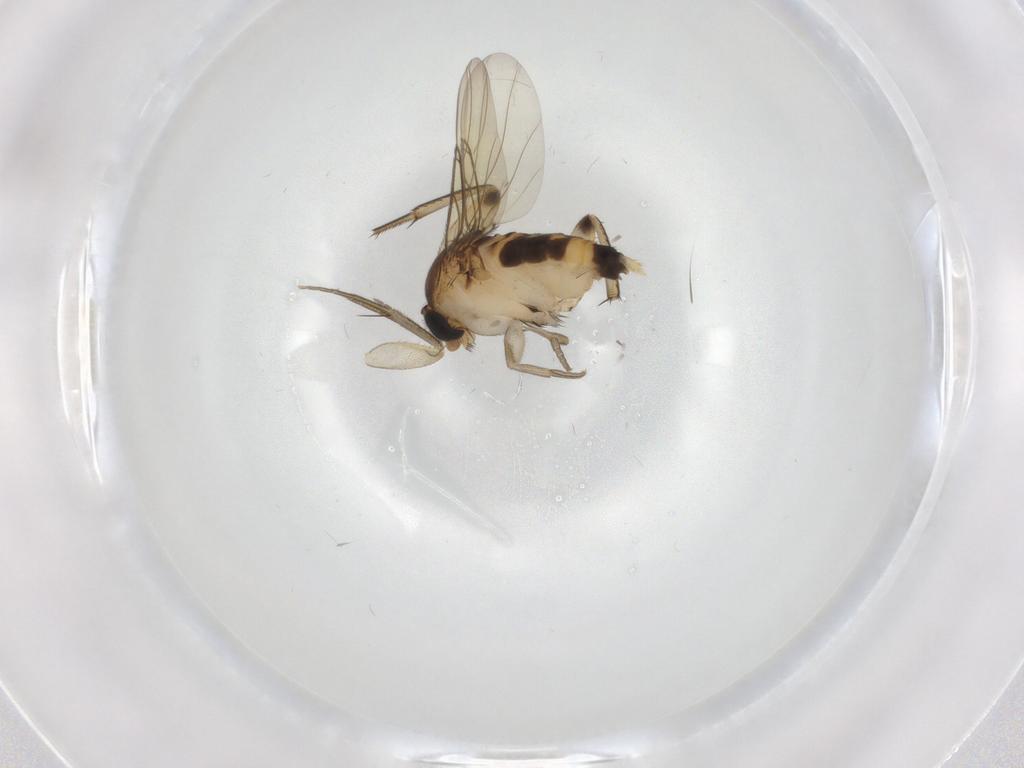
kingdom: Animalia
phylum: Arthropoda
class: Insecta
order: Diptera
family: Phoridae
